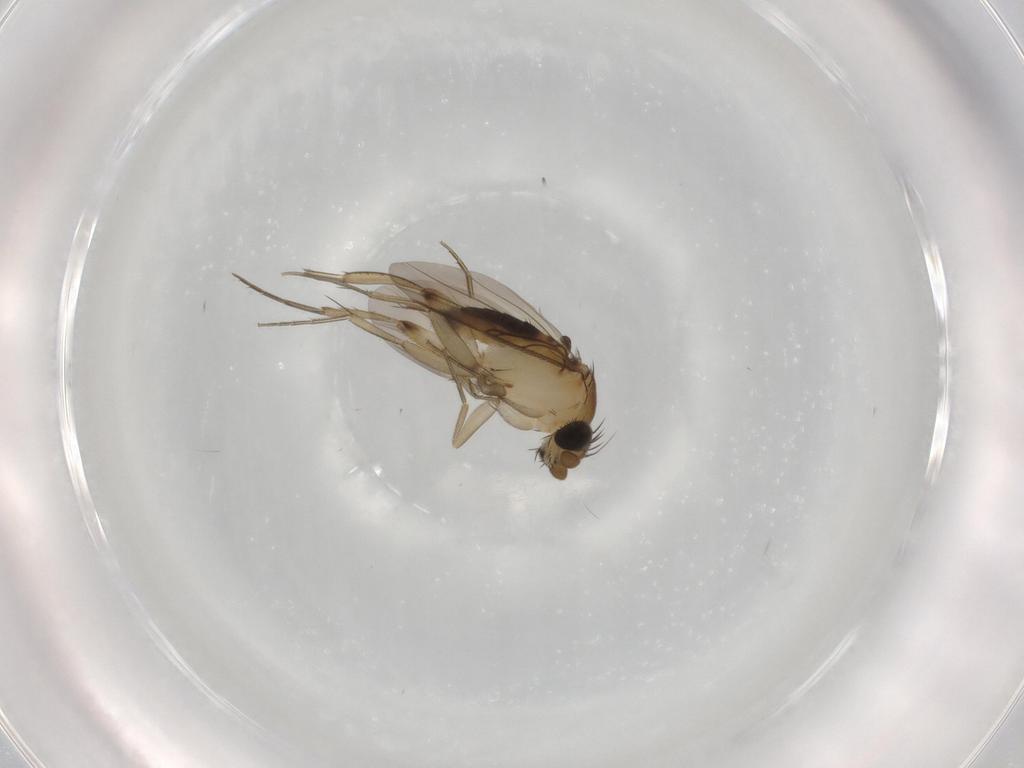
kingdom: Animalia
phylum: Arthropoda
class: Insecta
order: Diptera
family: Phoridae
